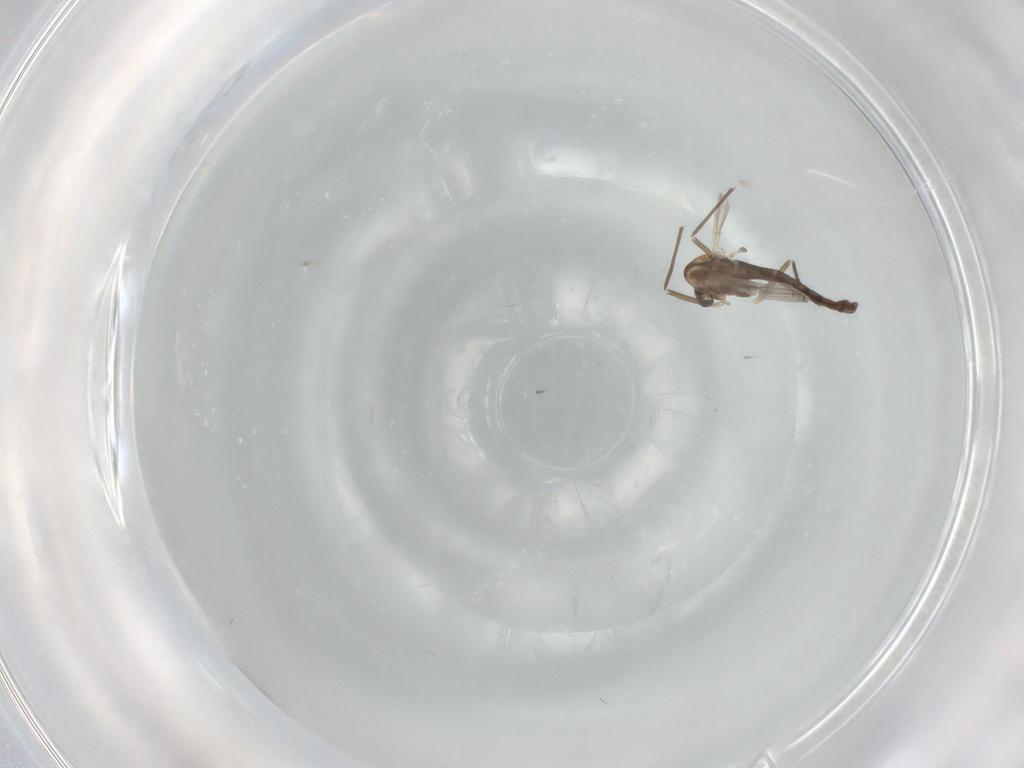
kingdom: Animalia
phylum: Arthropoda
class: Insecta
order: Diptera
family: Chironomidae
